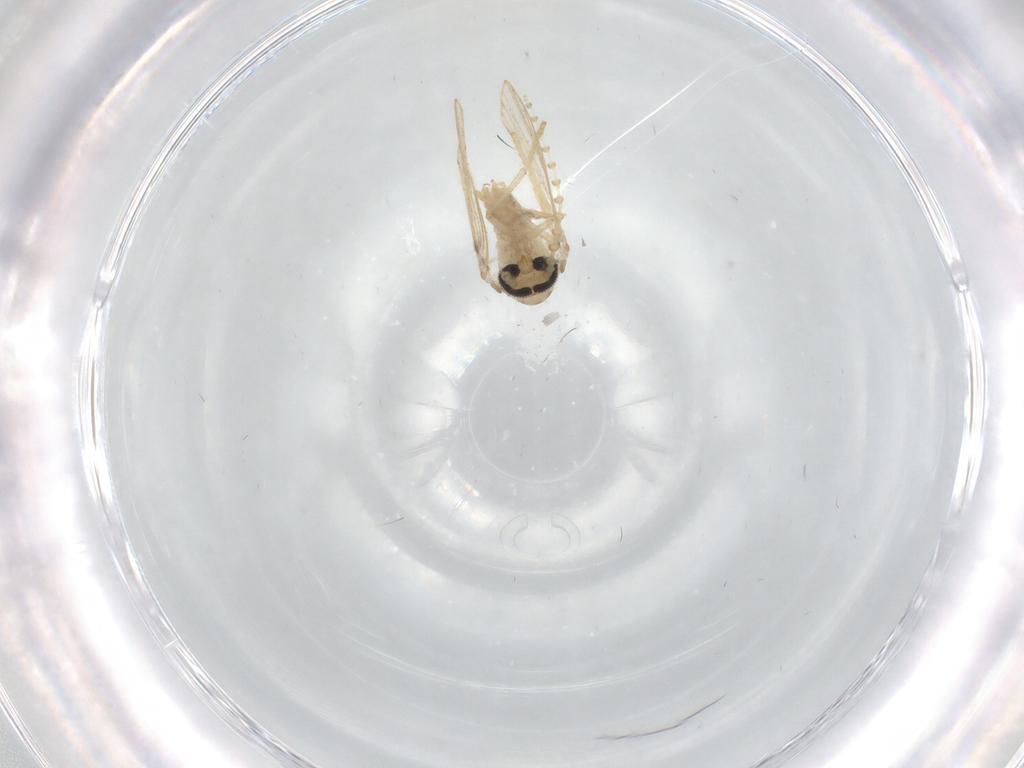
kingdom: Animalia
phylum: Arthropoda
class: Insecta
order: Diptera
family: Psychodidae
